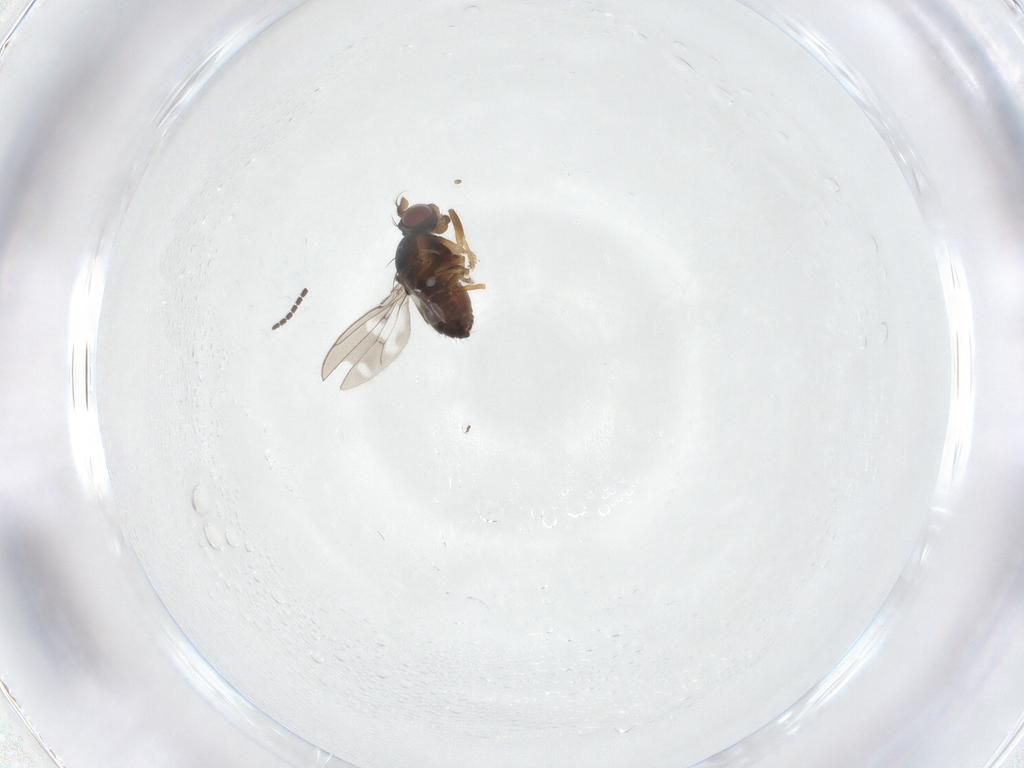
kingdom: Animalia
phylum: Arthropoda
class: Insecta
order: Diptera
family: Ephydridae
